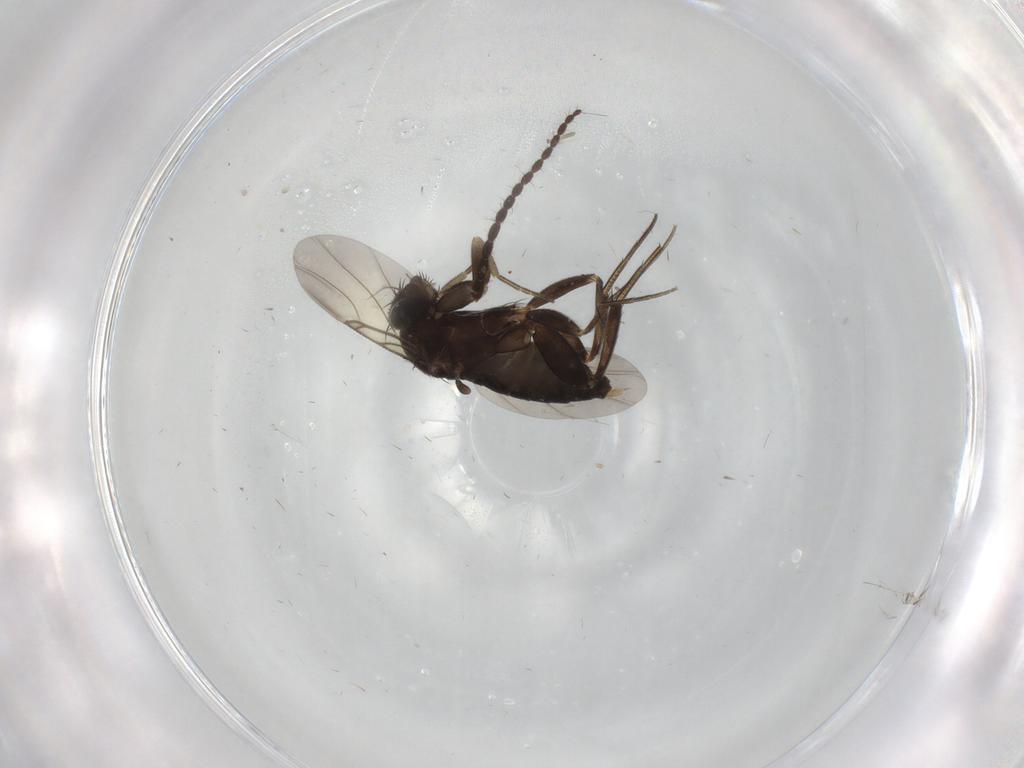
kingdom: Animalia
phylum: Arthropoda
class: Insecta
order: Diptera
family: Phoridae
